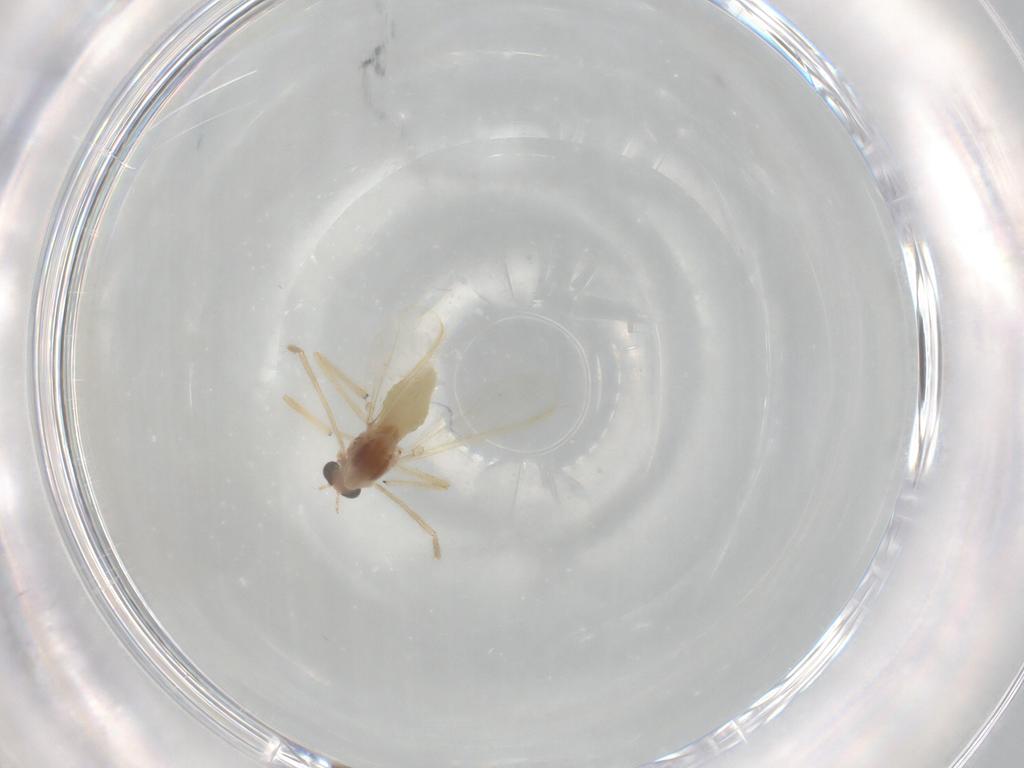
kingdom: Animalia
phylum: Arthropoda
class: Insecta
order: Diptera
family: Chironomidae
